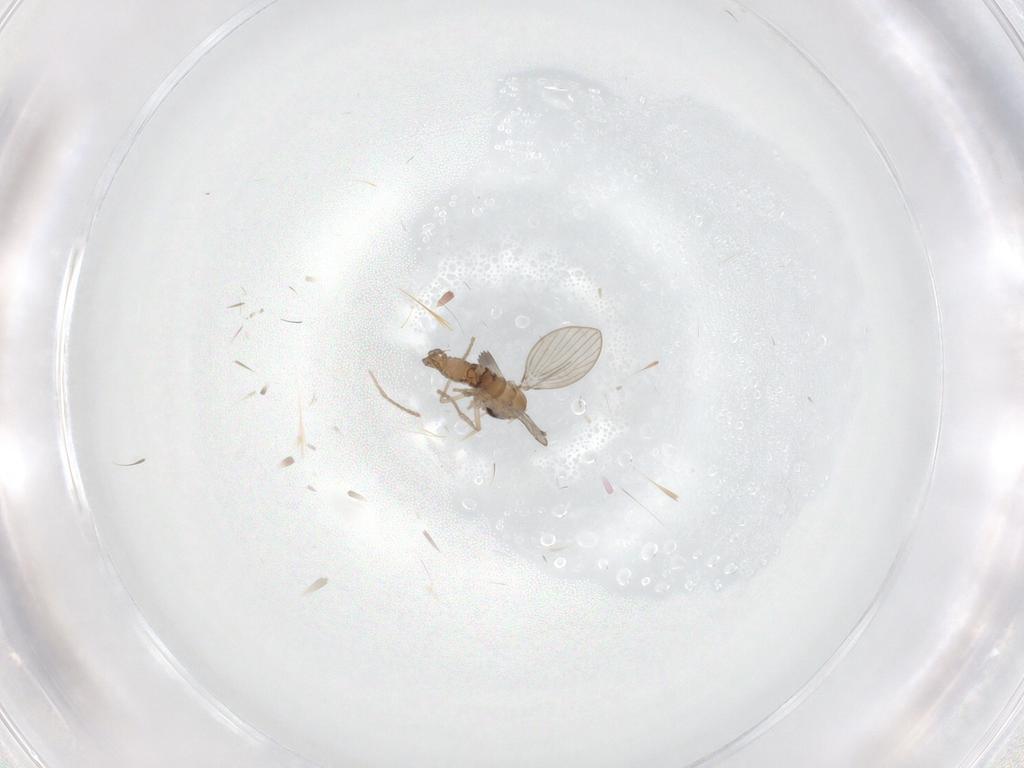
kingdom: Animalia
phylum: Arthropoda
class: Insecta
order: Diptera
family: Psychodidae
